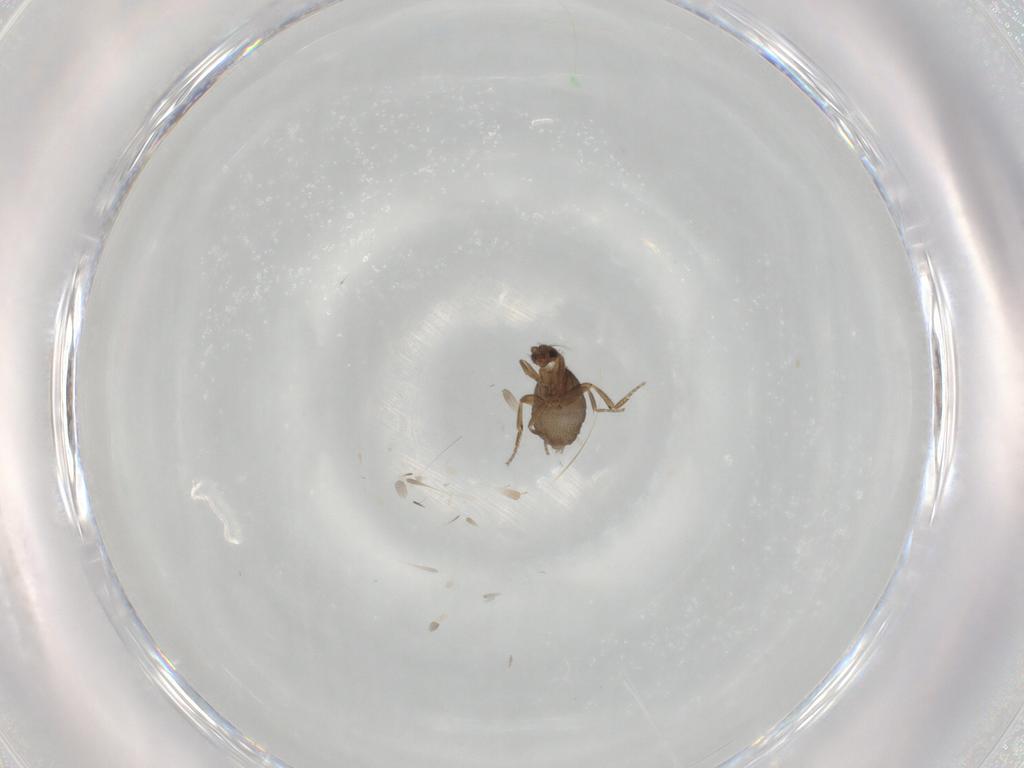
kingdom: Animalia
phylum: Arthropoda
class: Insecta
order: Diptera
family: Phoridae
